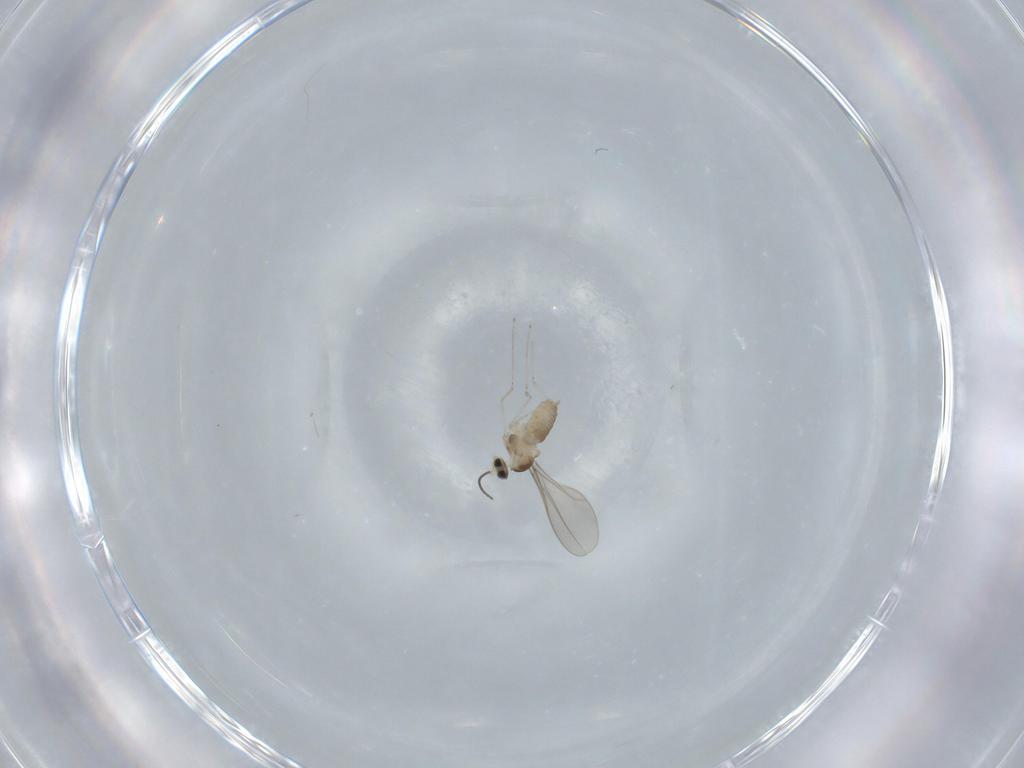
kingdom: Animalia
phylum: Arthropoda
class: Insecta
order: Diptera
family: Cecidomyiidae
